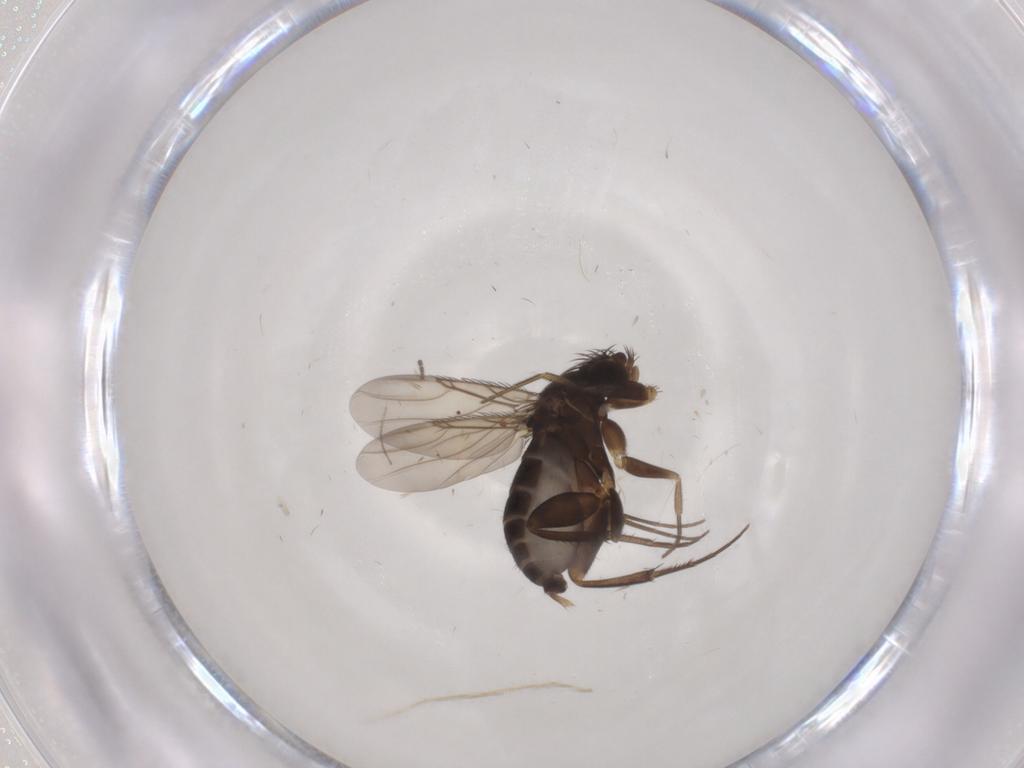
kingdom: Animalia
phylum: Arthropoda
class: Insecta
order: Diptera
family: Phoridae
